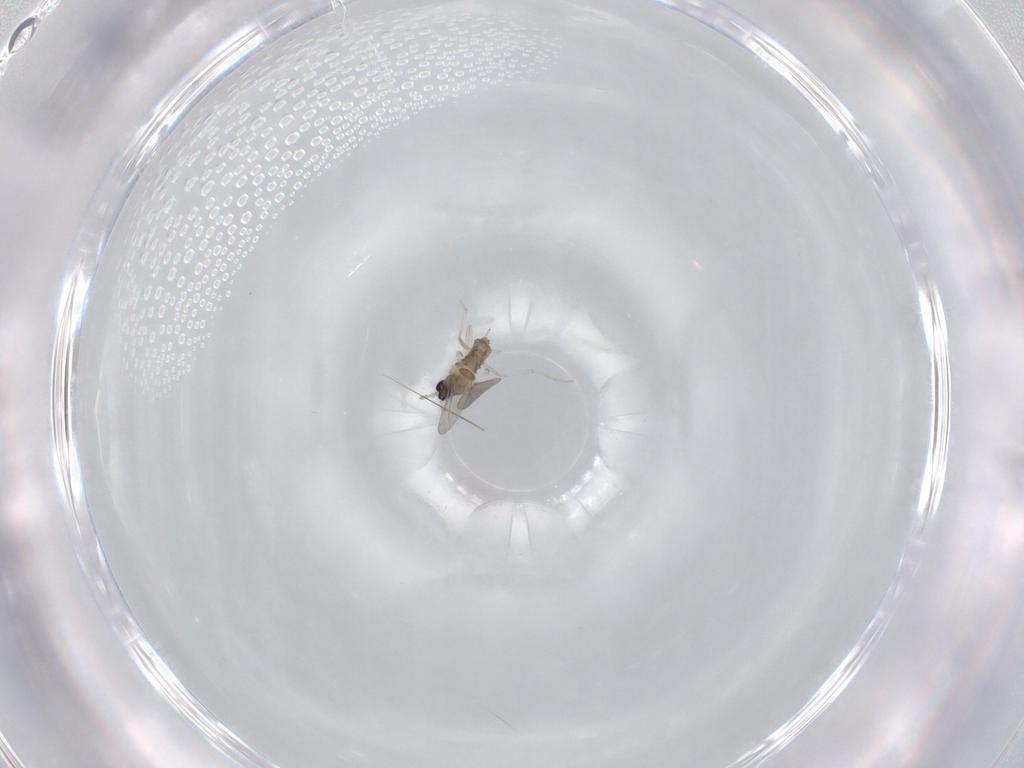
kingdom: Animalia
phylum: Arthropoda
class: Insecta
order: Diptera
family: Cecidomyiidae
